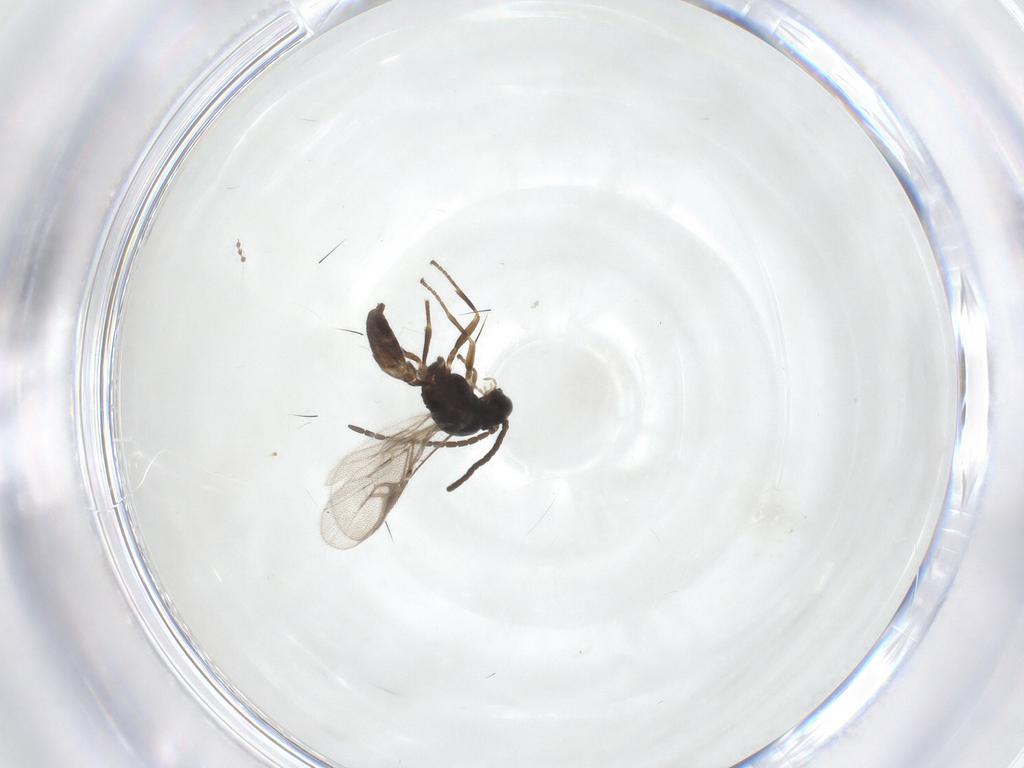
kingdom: Animalia
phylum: Arthropoda
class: Insecta
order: Hymenoptera
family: Braconidae
